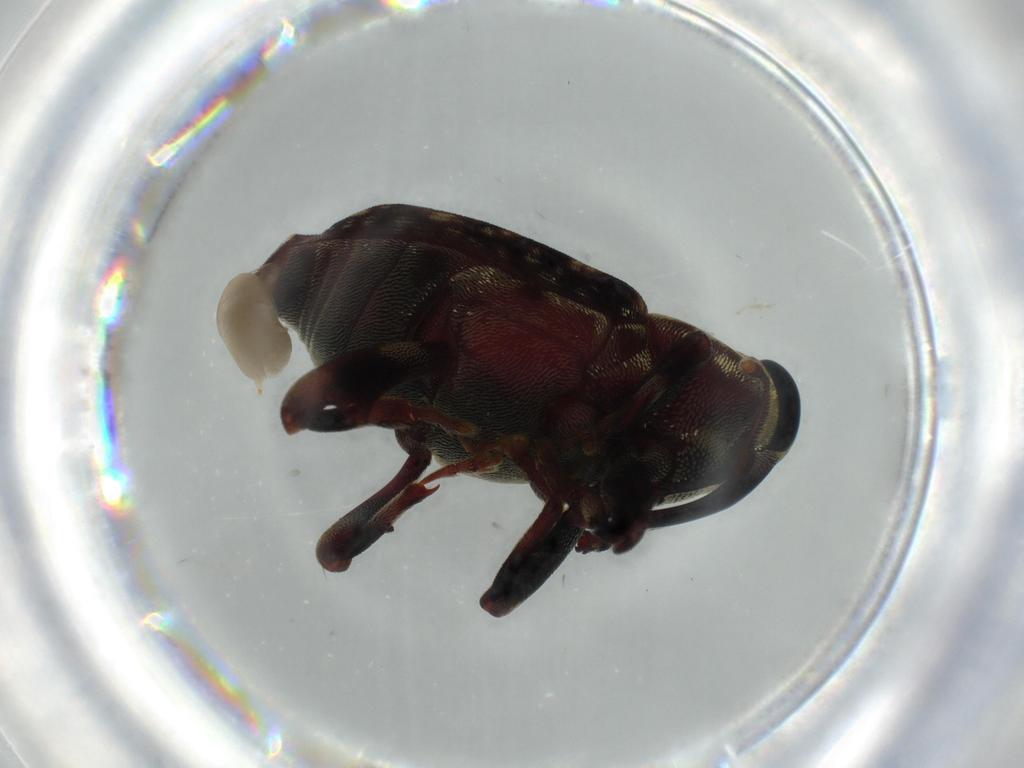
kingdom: Animalia
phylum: Arthropoda
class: Insecta
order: Coleoptera
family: Curculionidae
